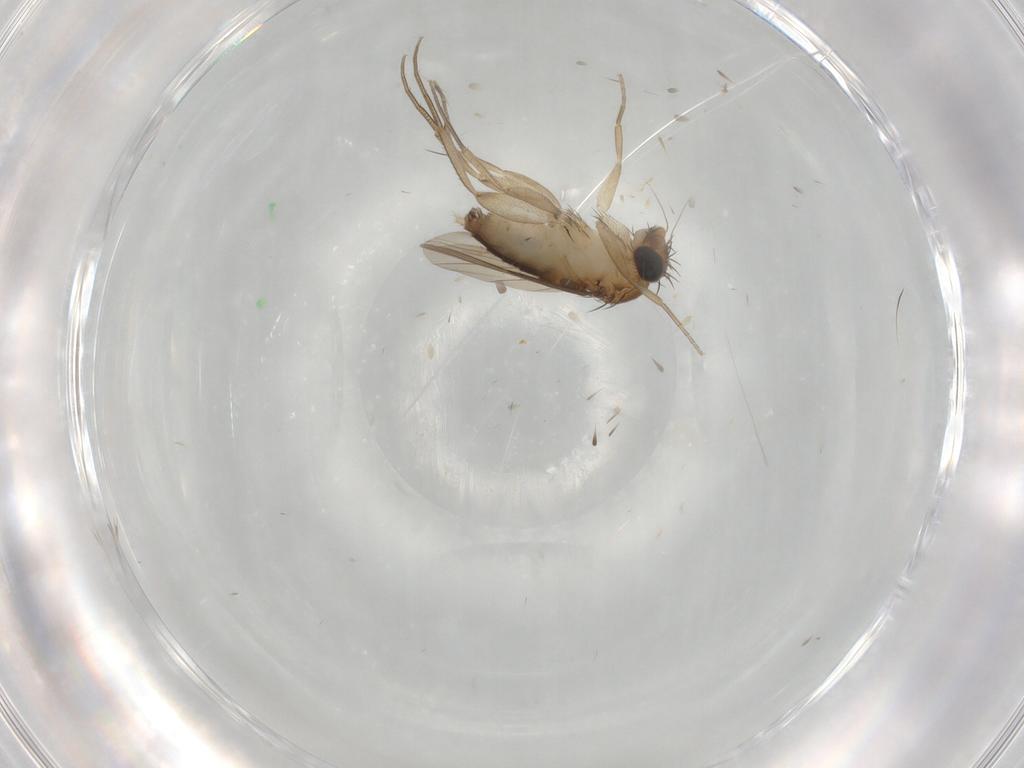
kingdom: Animalia
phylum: Arthropoda
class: Insecta
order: Diptera
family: Phoridae
